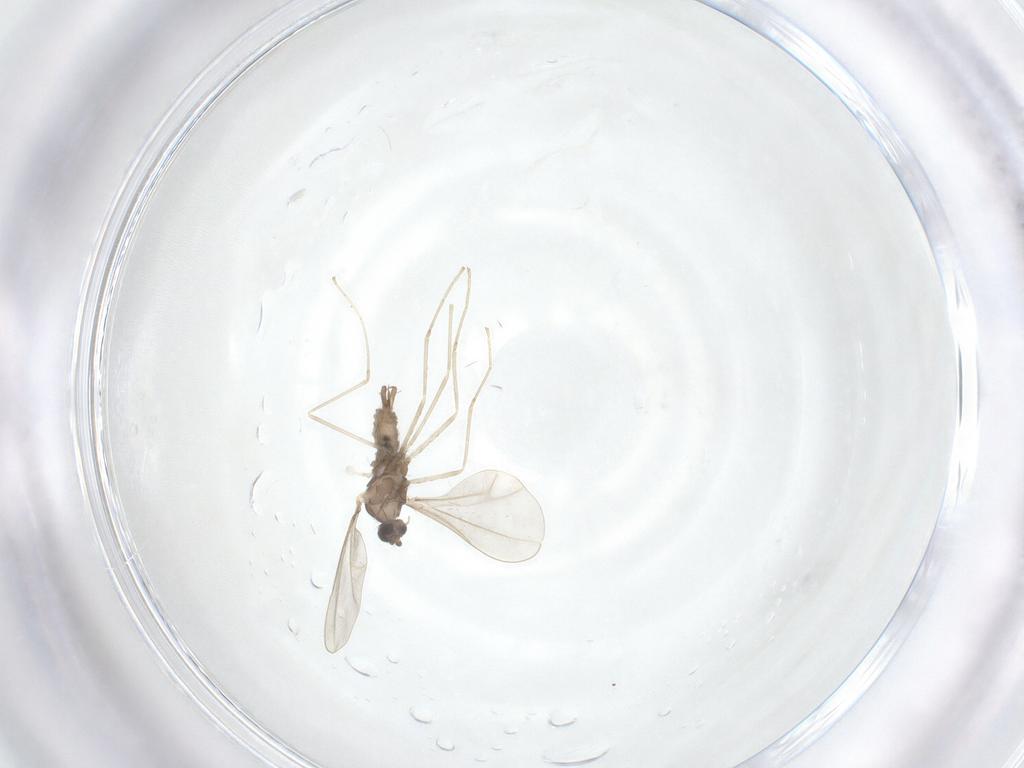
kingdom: Animalia
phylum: Arthropoda
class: Insecta
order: Diptera
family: Cecidomyiidae
